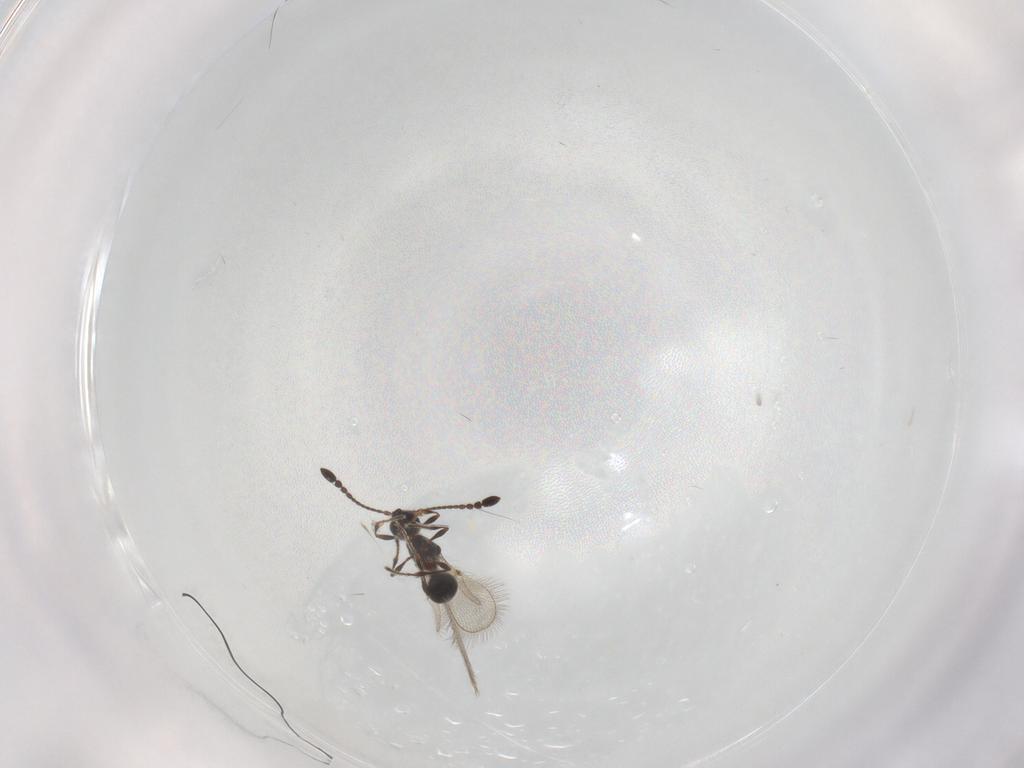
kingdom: Animalia
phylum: Arthropoda
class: Insecta
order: Hymenoptera
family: Diapriidae
